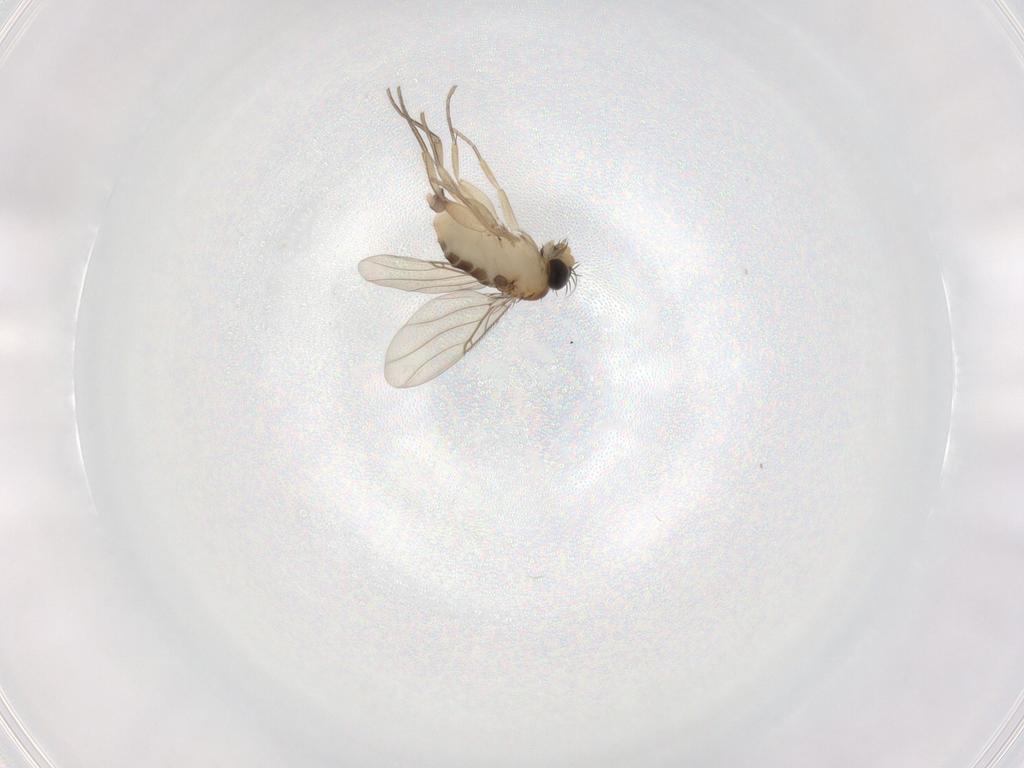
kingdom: Animalia
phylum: Arthropoda
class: Insecta
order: Diptera
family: Phoridae
